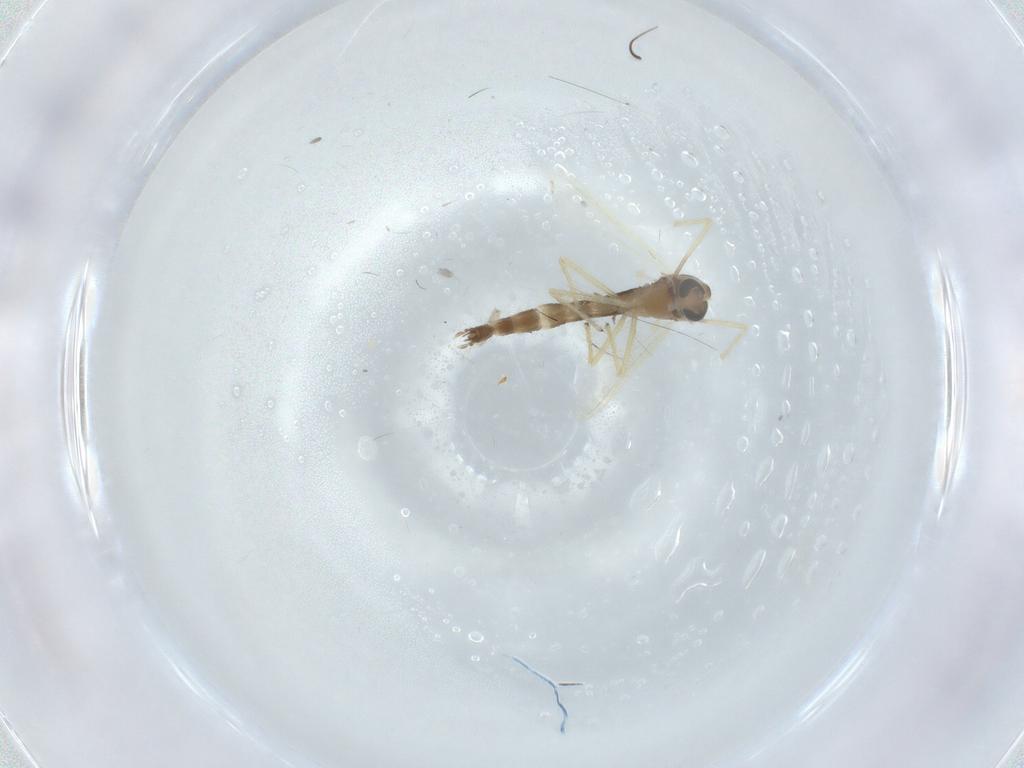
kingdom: Animalia
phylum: Arthropoda
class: Insecta
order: Diptera
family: Chironomidae
